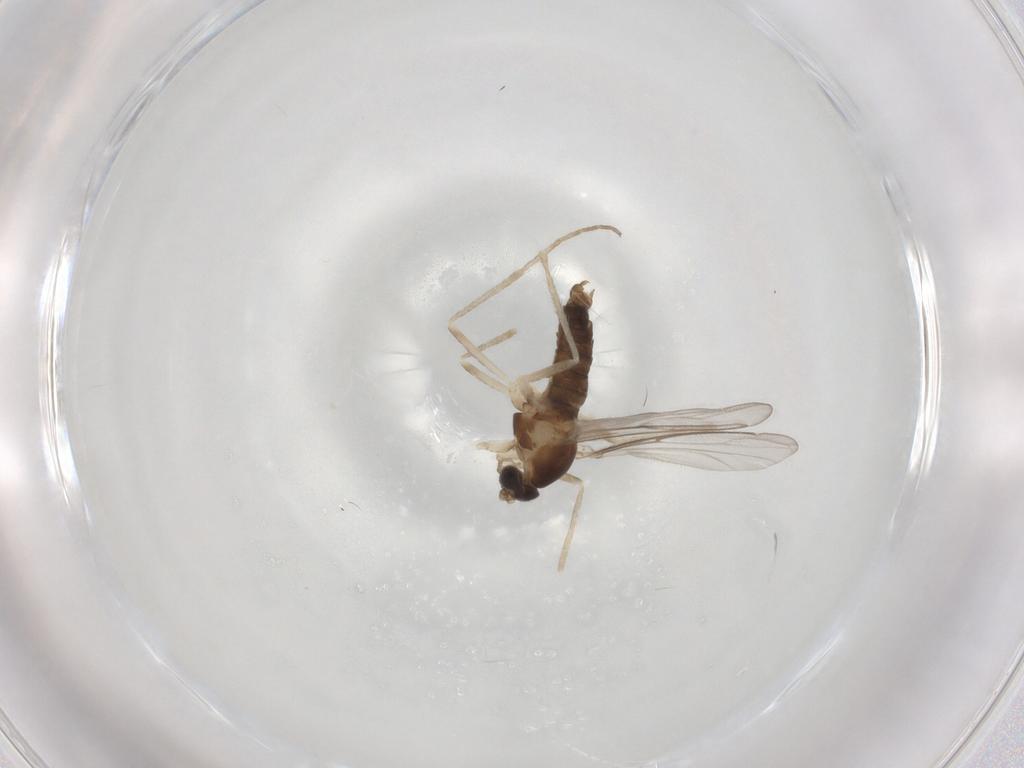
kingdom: Animalia
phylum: Arthropoda
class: Insecta
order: Diptera
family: Cecidomyiidae
